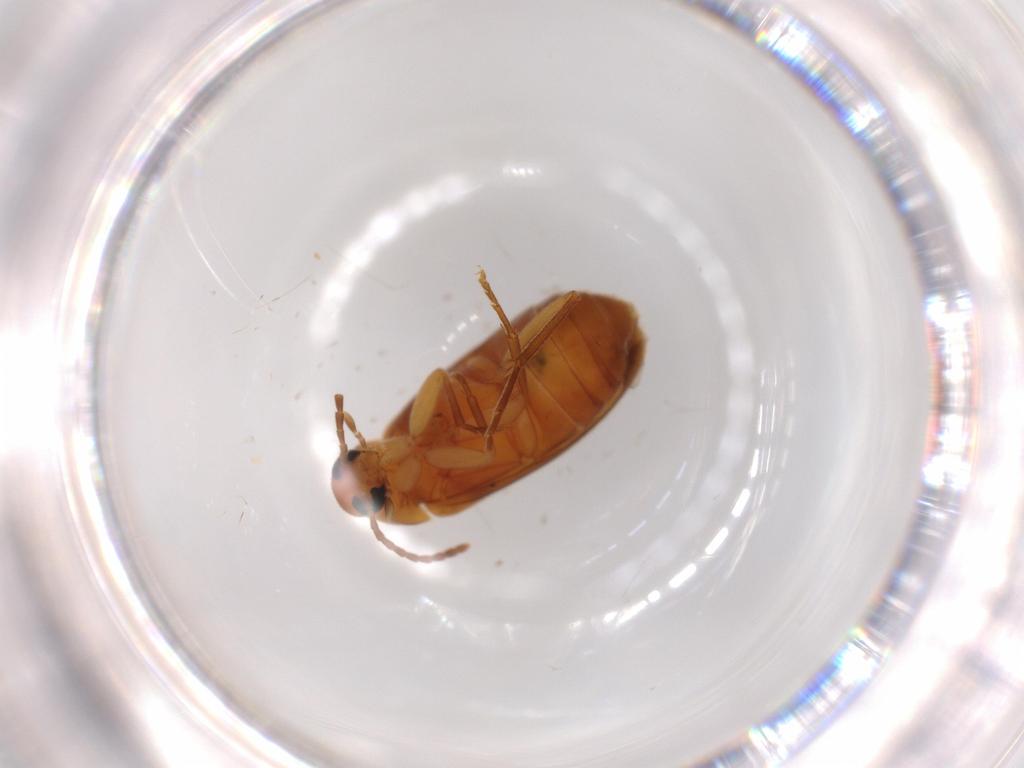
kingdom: Animalia
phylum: Arthropoda
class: Insecta
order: Coleoptera
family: Scraptiidae
